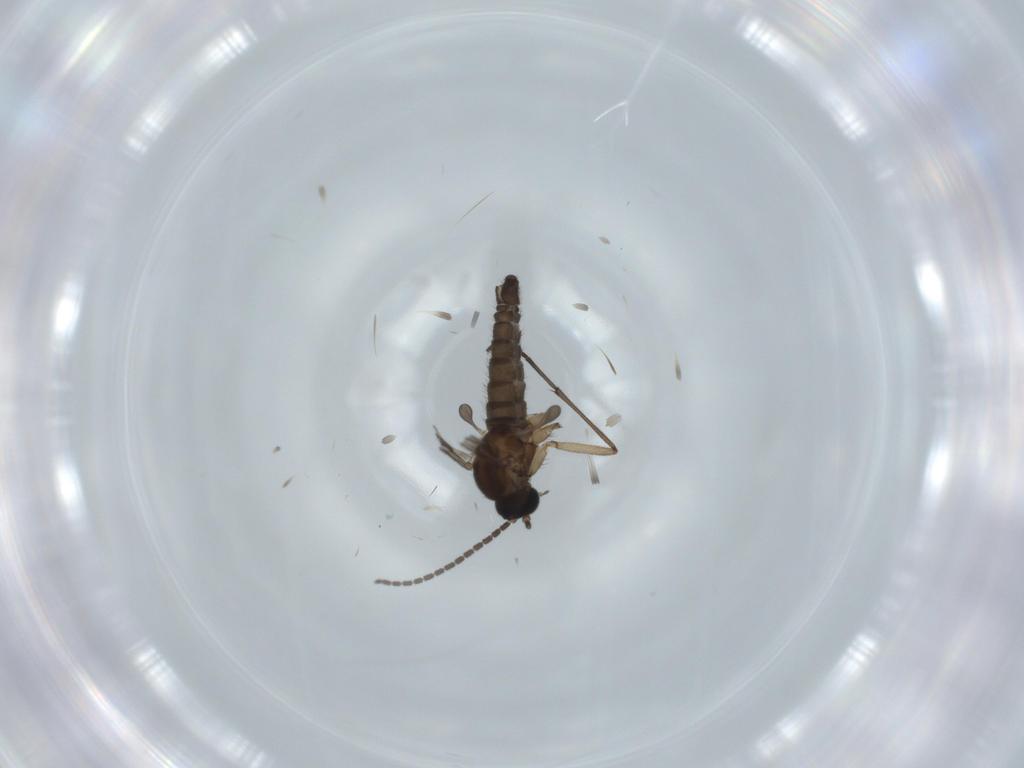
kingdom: Animalia
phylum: Arthropoda
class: Insecta
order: Diptera
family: Sciaridae
